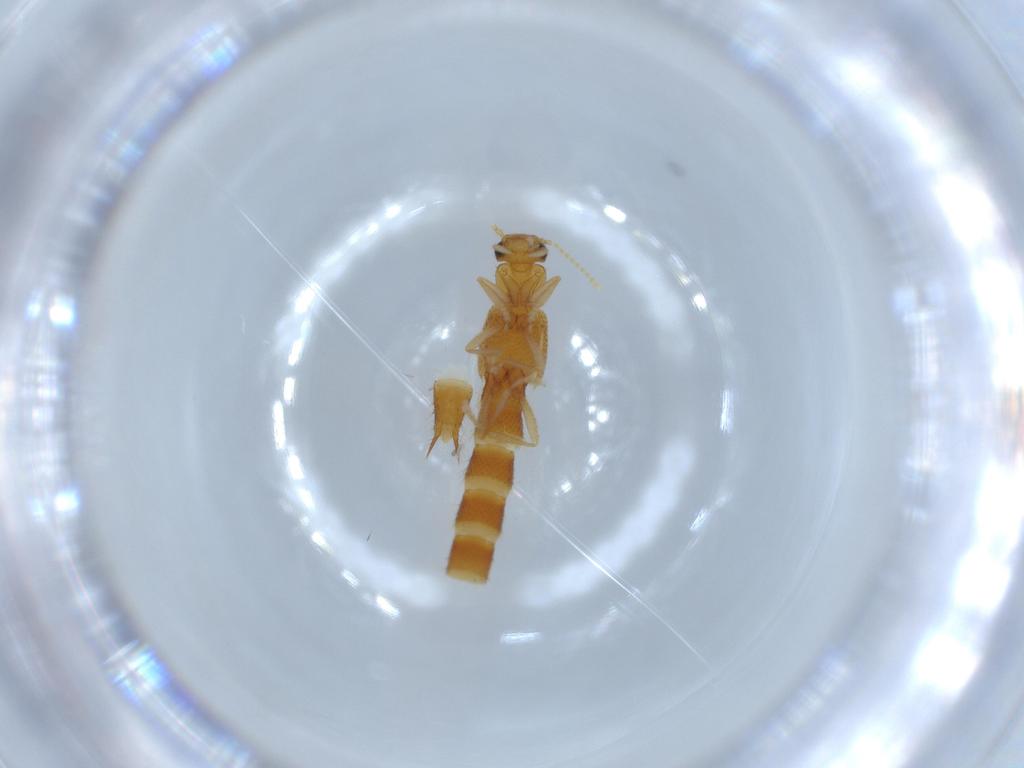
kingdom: Animalia
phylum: Arthropoda
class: Insecta
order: Coleoptera
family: Staphylinidae
